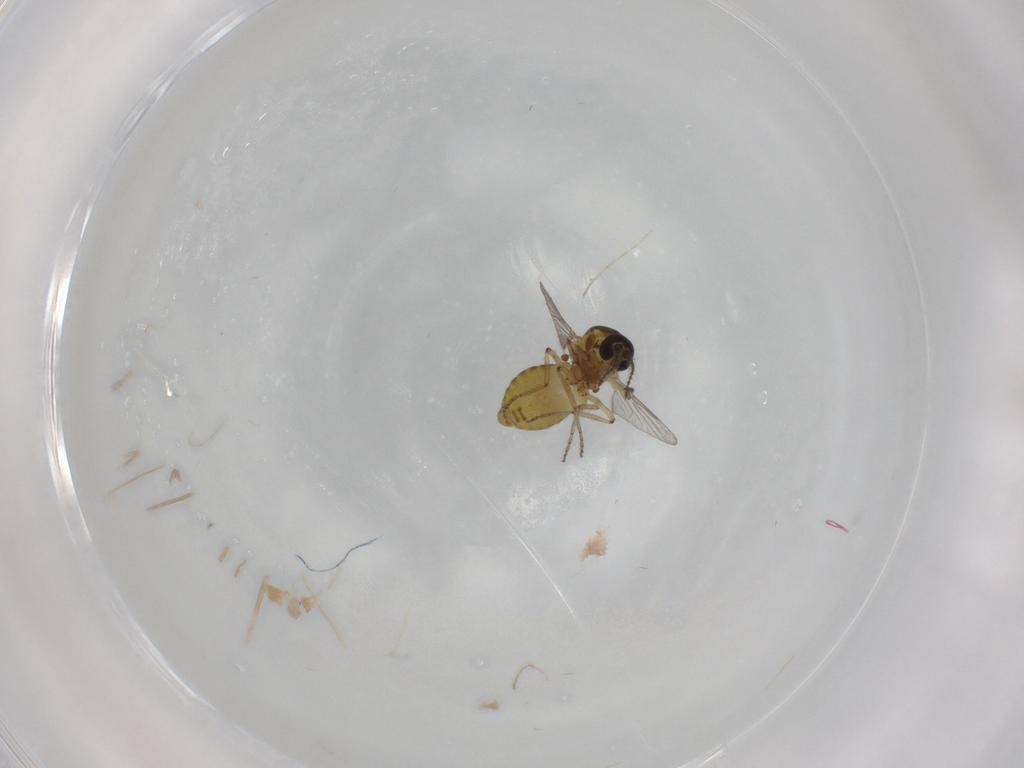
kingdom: Animalia
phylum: Arthropoda
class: Insecta
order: Diptera
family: Ceratopogonidae
